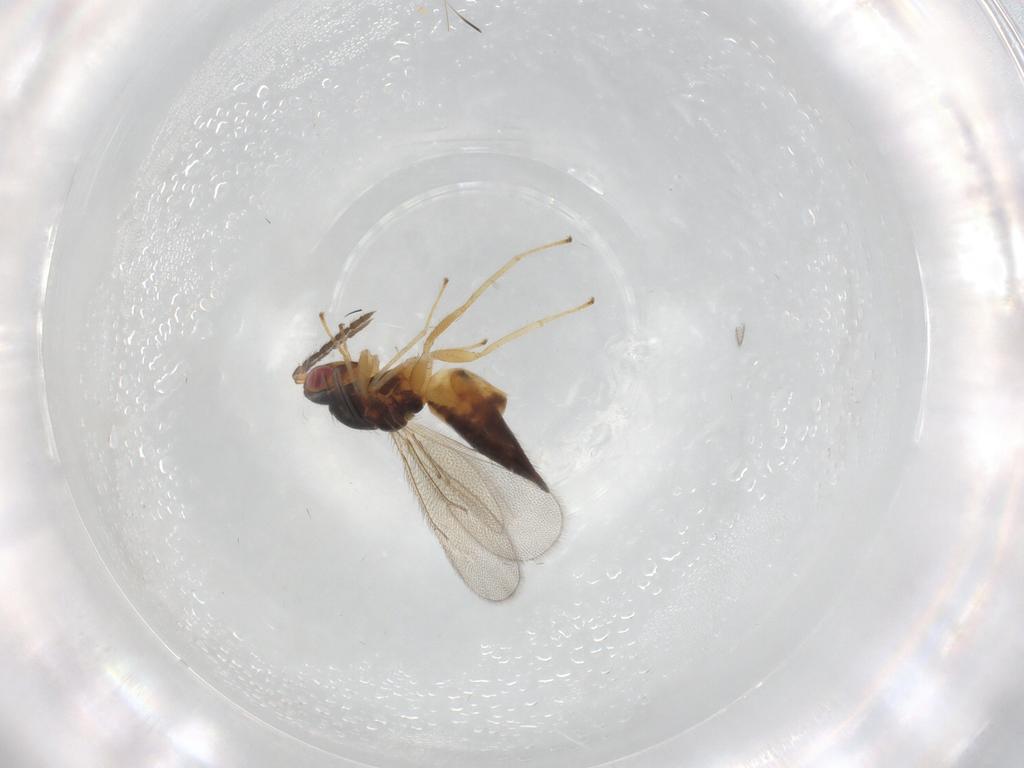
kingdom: Animalia
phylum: Arthropoda
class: Insecta
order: Hymenoptera
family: Eulophidae
